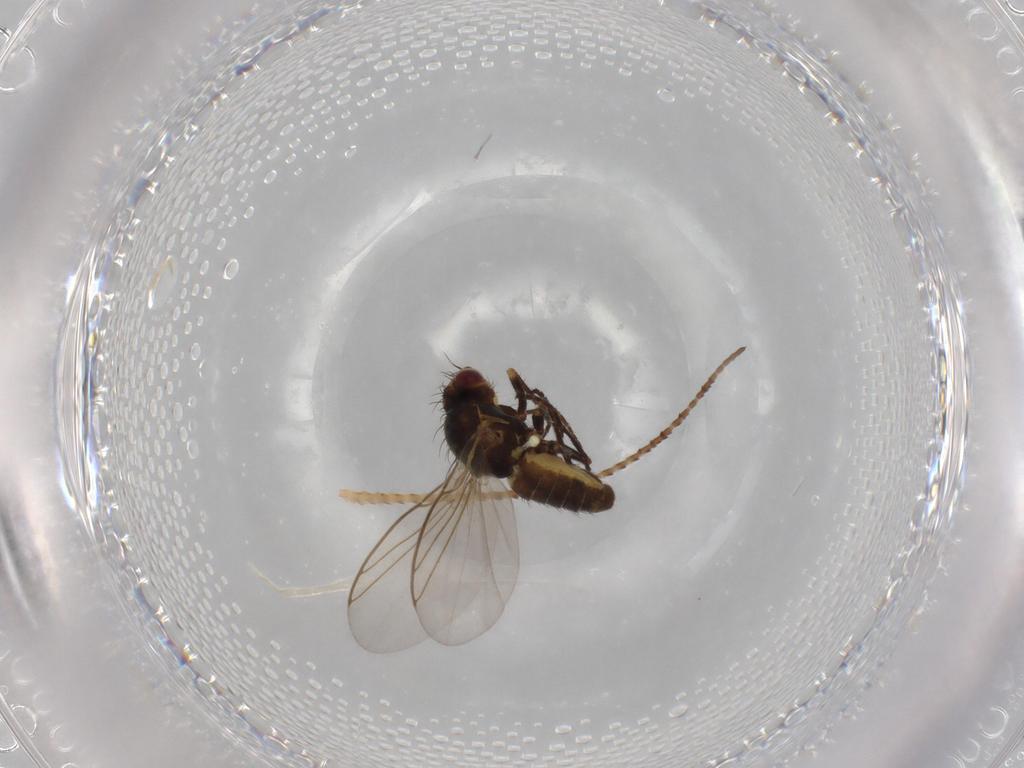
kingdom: Animalia
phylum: Arthropoda
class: Insecta
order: Diptera
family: Agromyzidae
